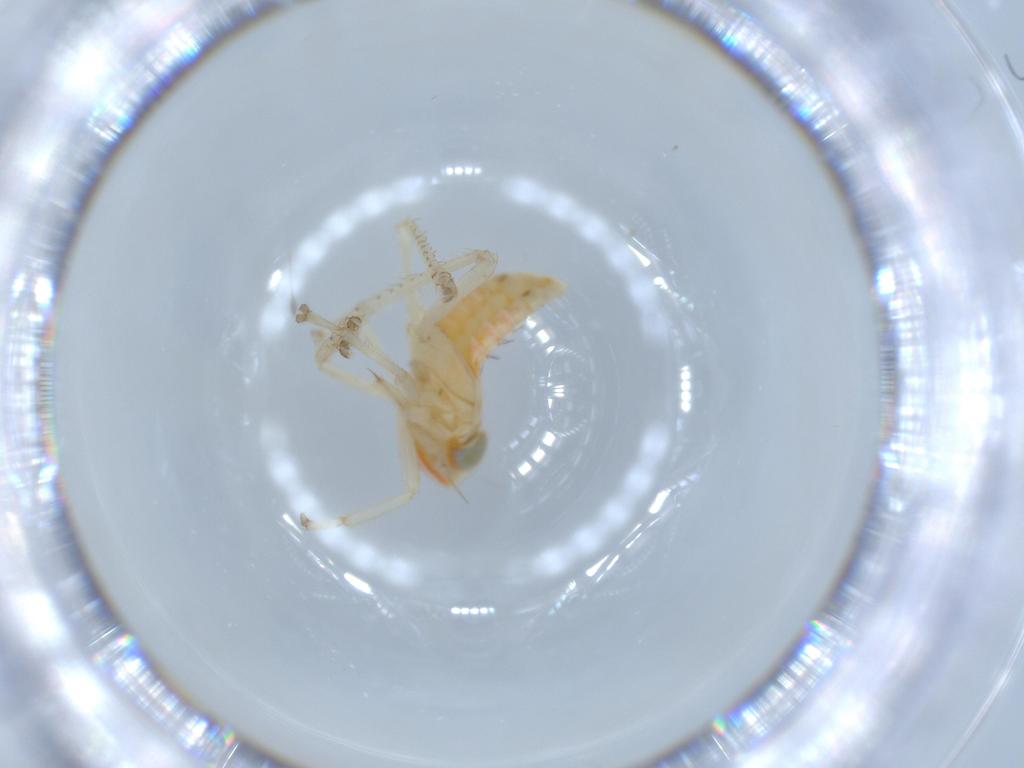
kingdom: Animalia
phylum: Arthropoda
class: Insecta
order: Hemiptera
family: Cicadellidae
